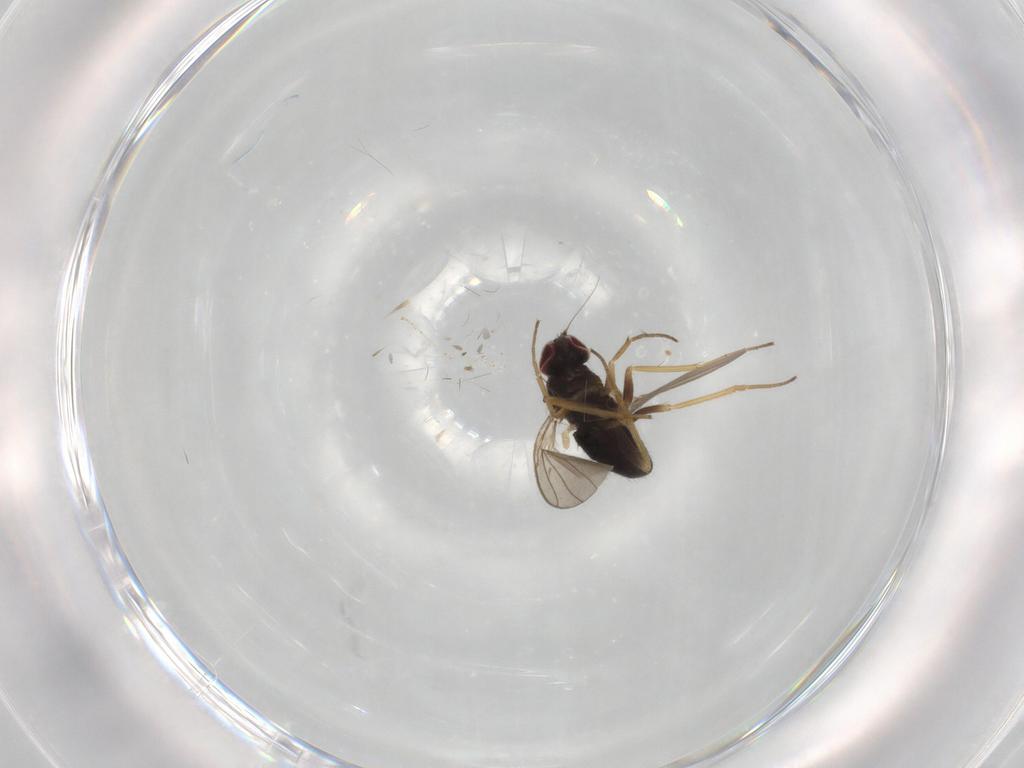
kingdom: Animalia
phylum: Arthropoda
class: Insecta
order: Diptera
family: Dolichopodidae
